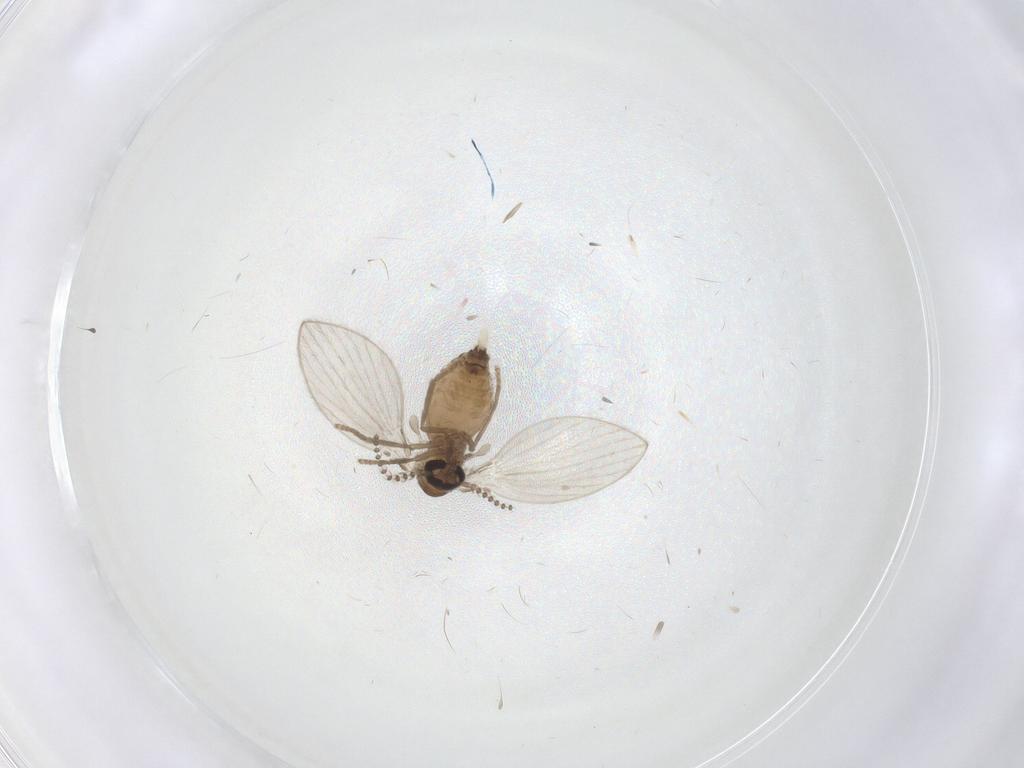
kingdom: Animalia
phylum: Arthropoda
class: Insecta
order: Diptera
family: Psychodidae
